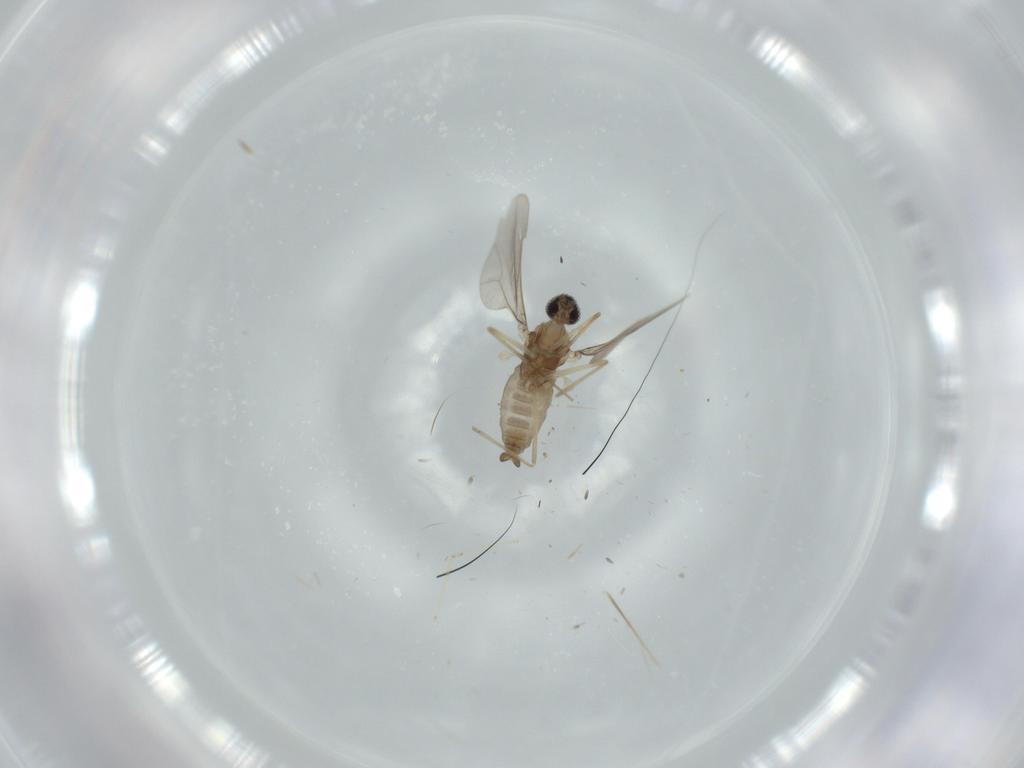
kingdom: Animalia
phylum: Arthropoda
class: Insecta
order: Diptera
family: Cecidomyiidae
